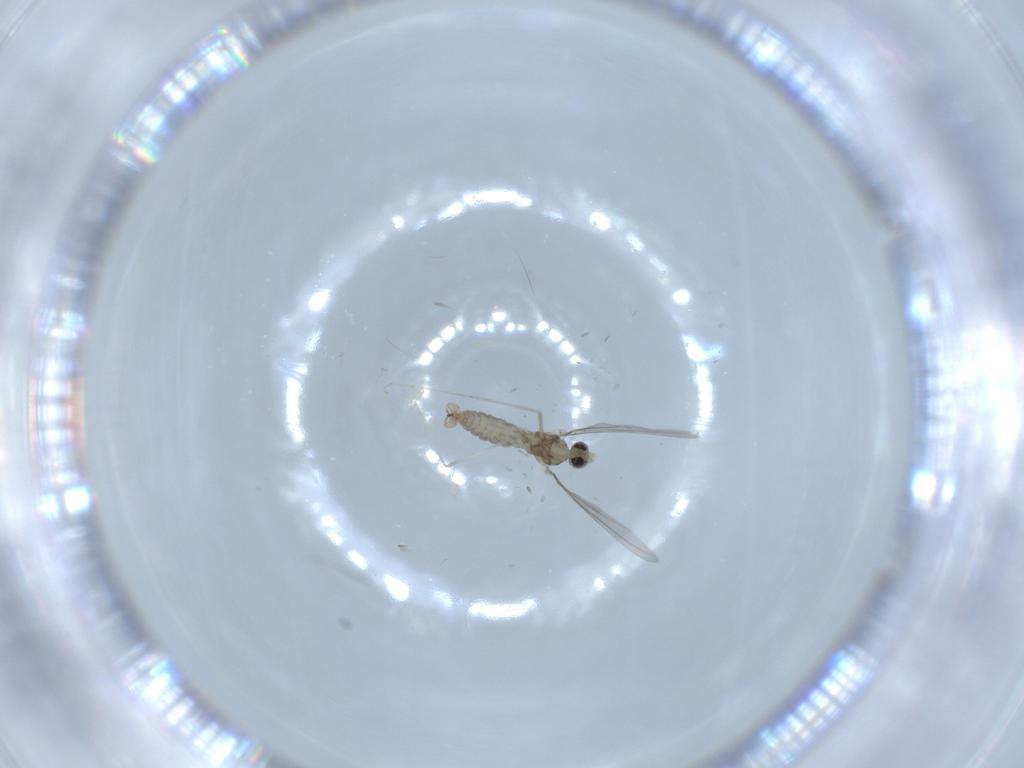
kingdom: Animalia
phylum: Arthropoda
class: Insecta
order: Diptera
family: Cecidomyiidae
